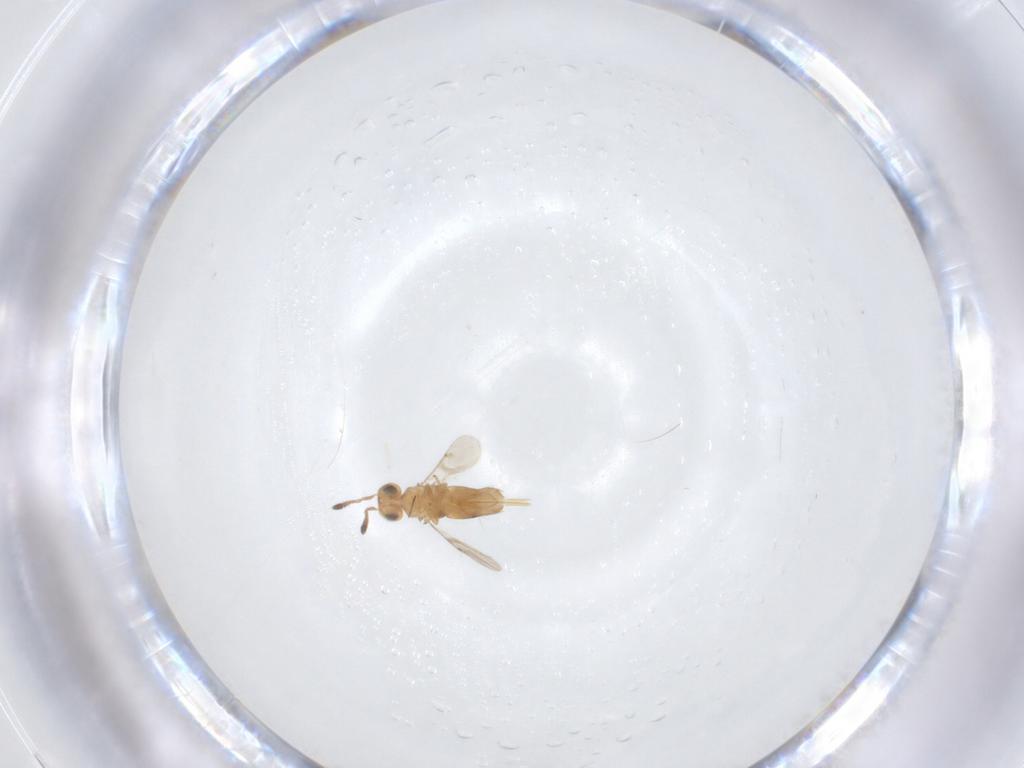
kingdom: Animalia
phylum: Arthropoda
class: Insecta
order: Hymenoptera
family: Encyrtidae
